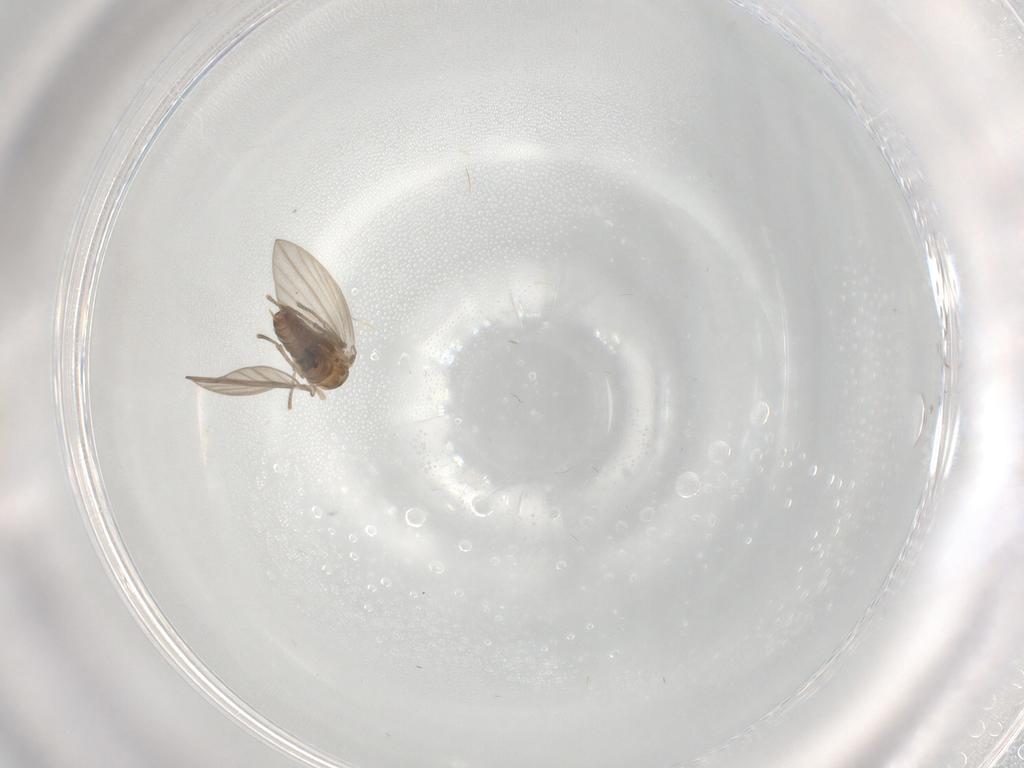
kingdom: Animalia
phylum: Arthropoda
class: Insecta
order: Diptera
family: Psychodidae
